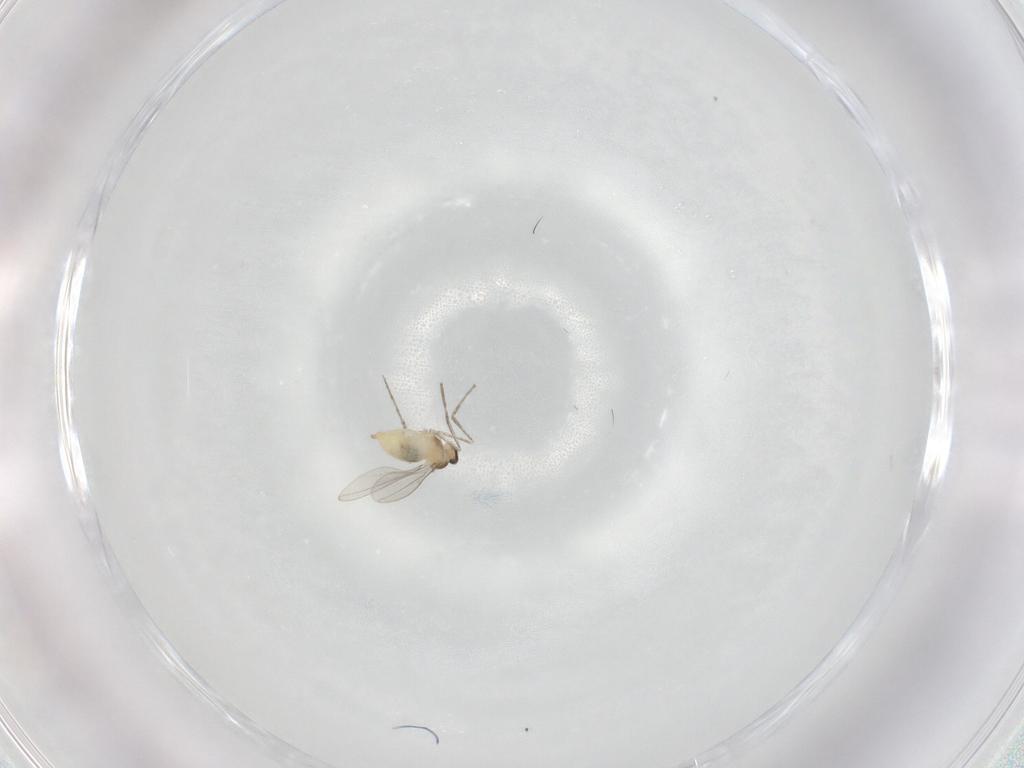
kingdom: Animalia
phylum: Arthropoda
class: Insecta
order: Diptera
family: Cecidomyiidae
